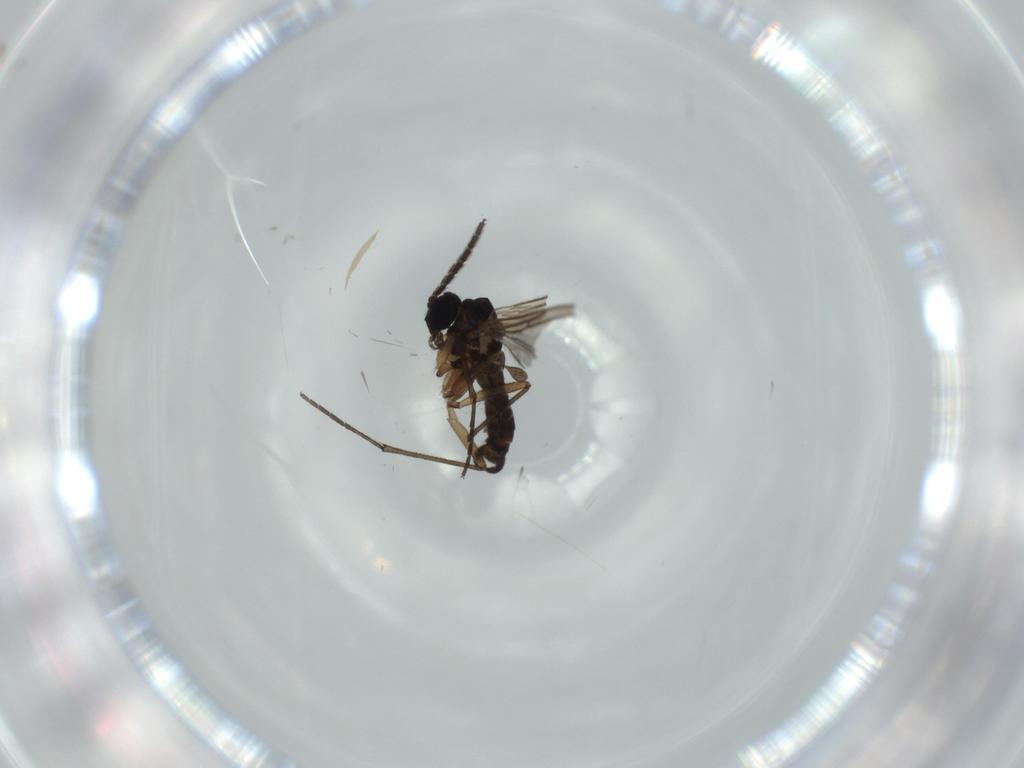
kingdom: Animalia
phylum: Arthropoda
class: Insecta
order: Diptera
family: Sciaridae
